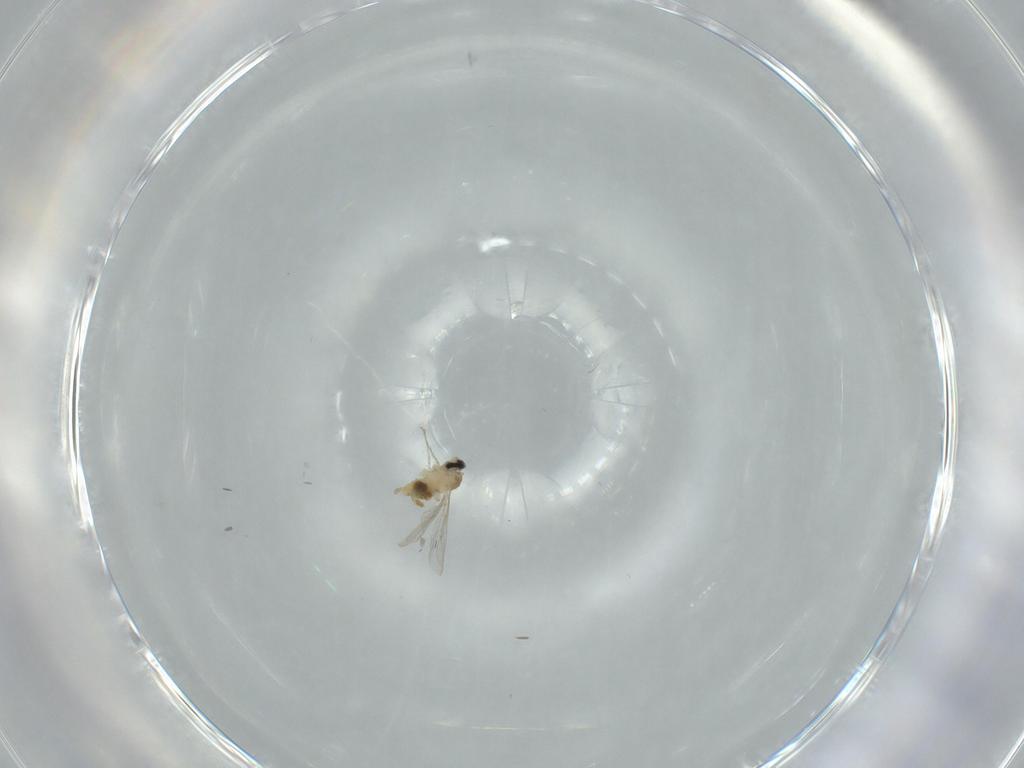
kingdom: Animalia
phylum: Arthropoda
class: Insecta
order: Diptera
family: Cecidomyiidae
